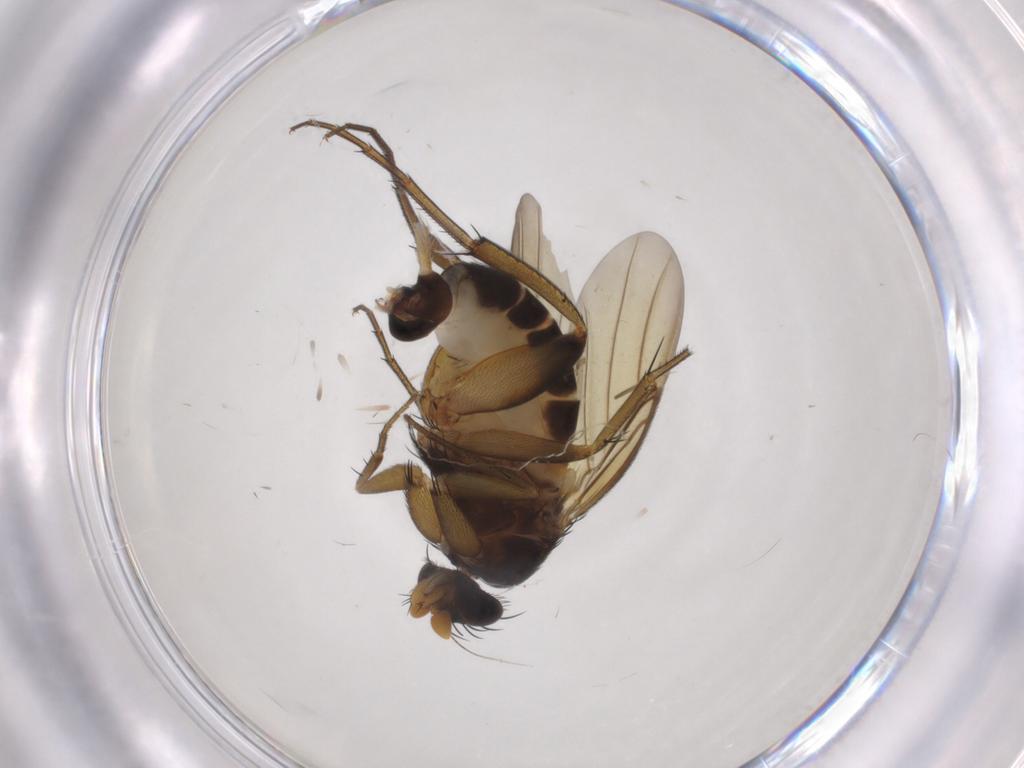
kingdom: Animalia
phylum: Arthropoda
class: Insecta
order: Diptera
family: Phoridae
